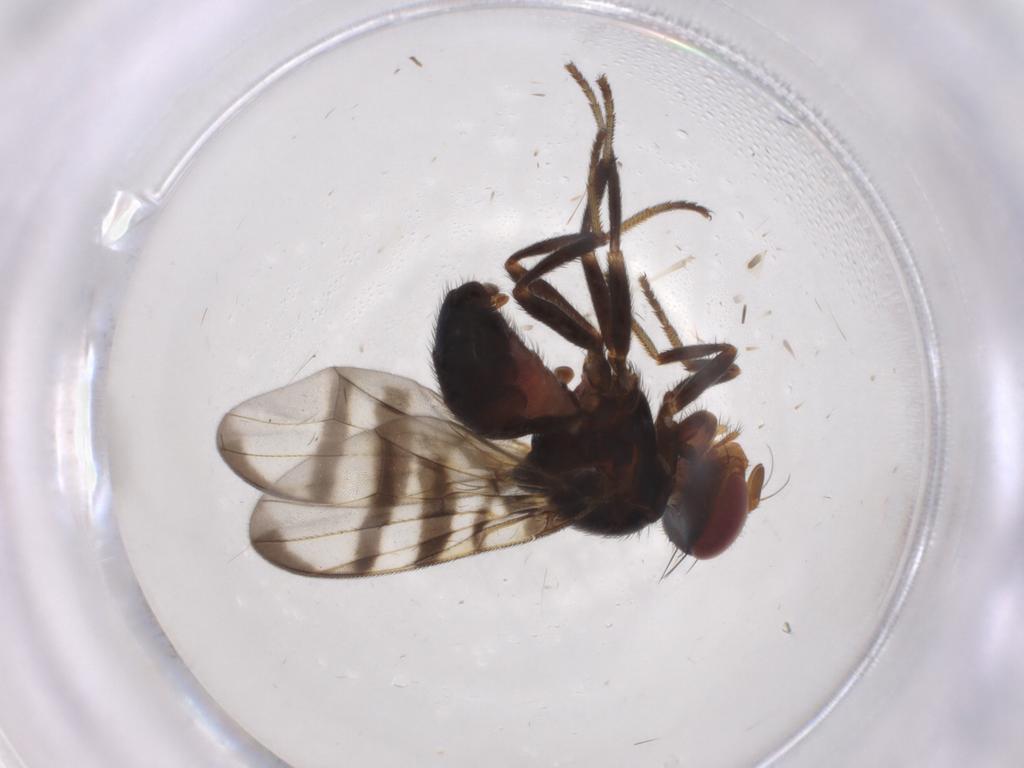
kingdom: Animalia
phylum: Arthropoda
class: Insecta
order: Diptera
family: Platystomatidae
